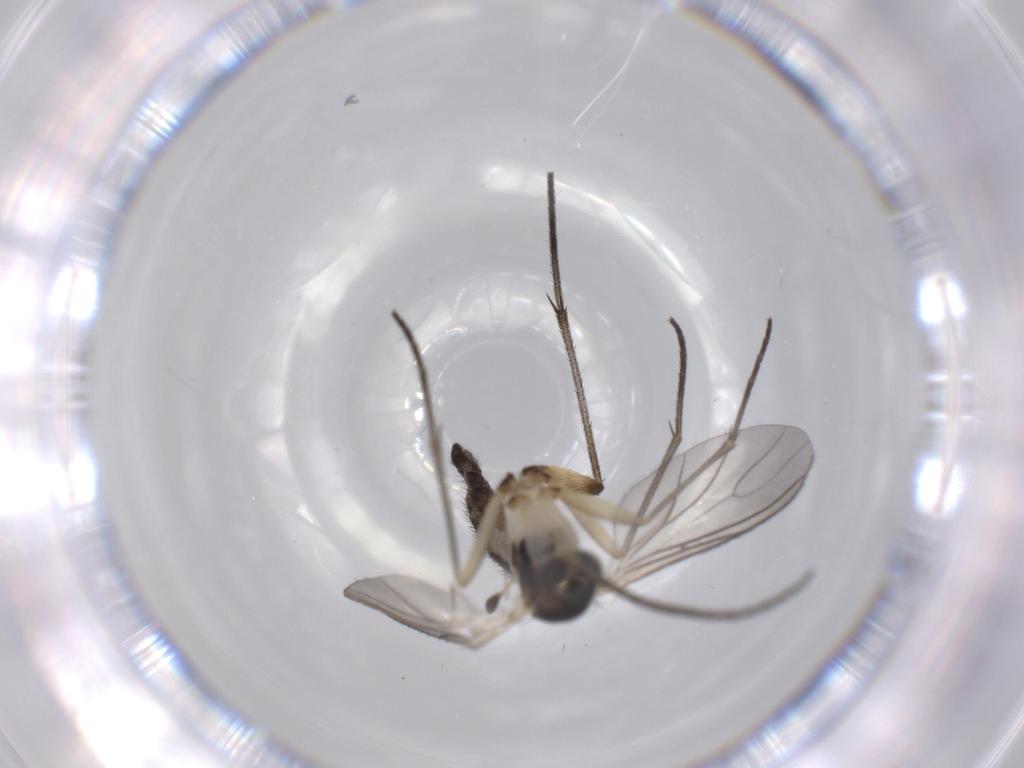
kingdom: Animalia
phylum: Arthropoda
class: Insecta
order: Diptera
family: Sciaridae
